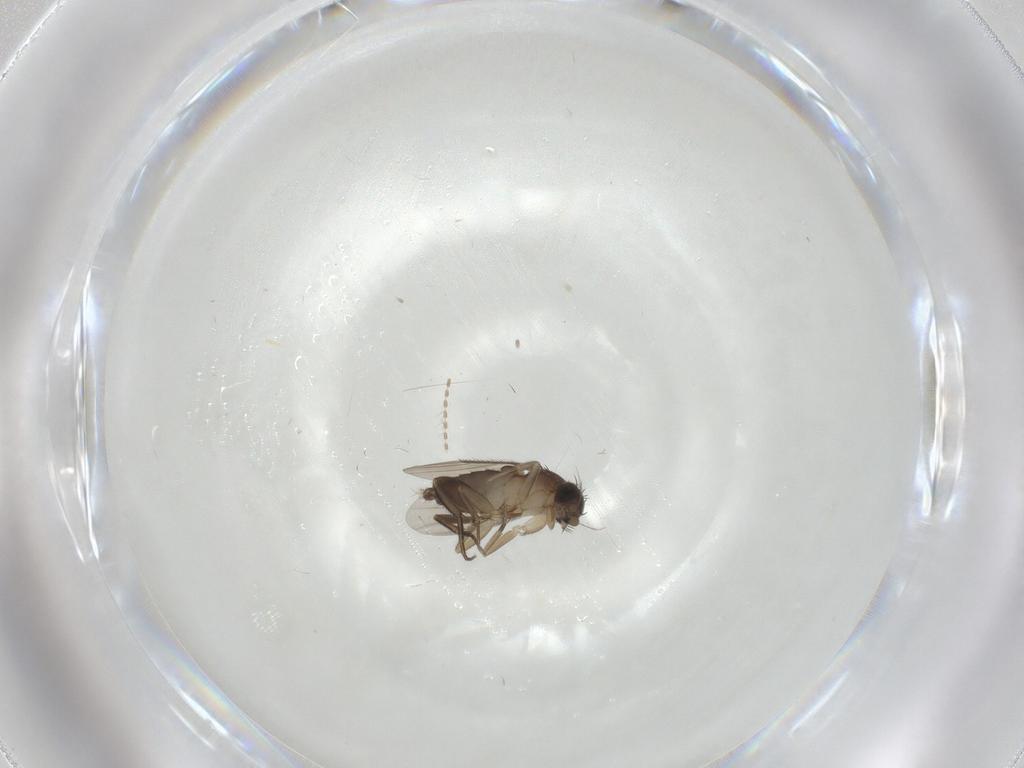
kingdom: Animalia
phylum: Arthropoda
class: Insecta
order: Diptera
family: Phoridae
